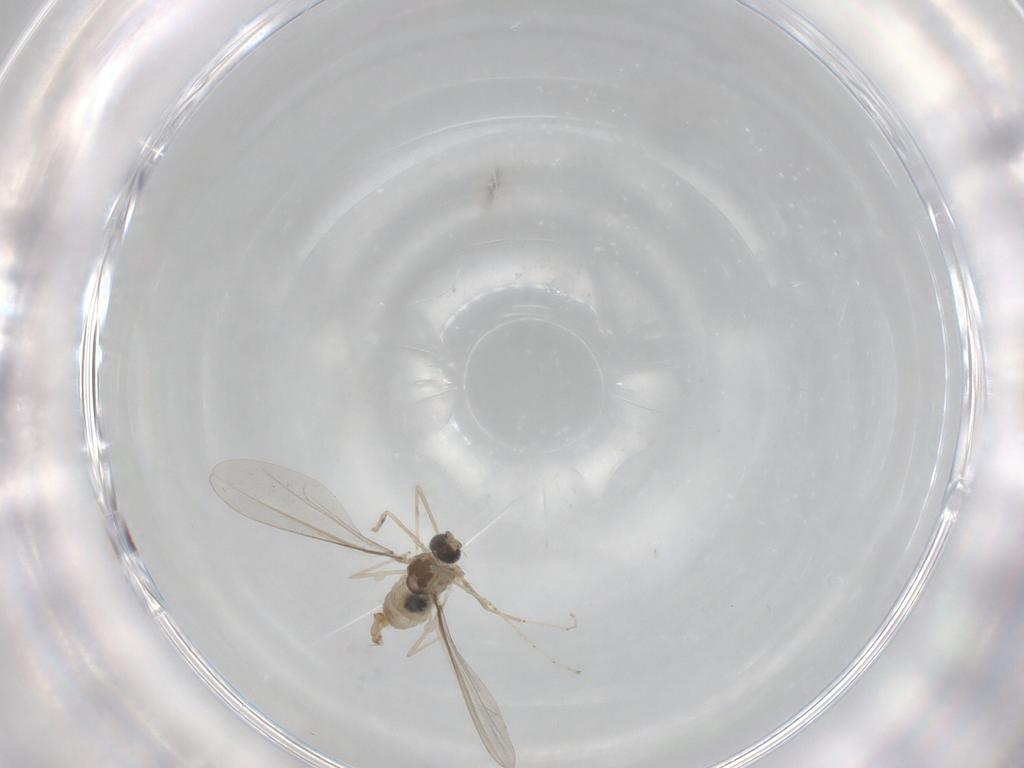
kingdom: Animalia
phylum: Arthropoda
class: Insecta
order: Diptera
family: Cecidomyiidae
